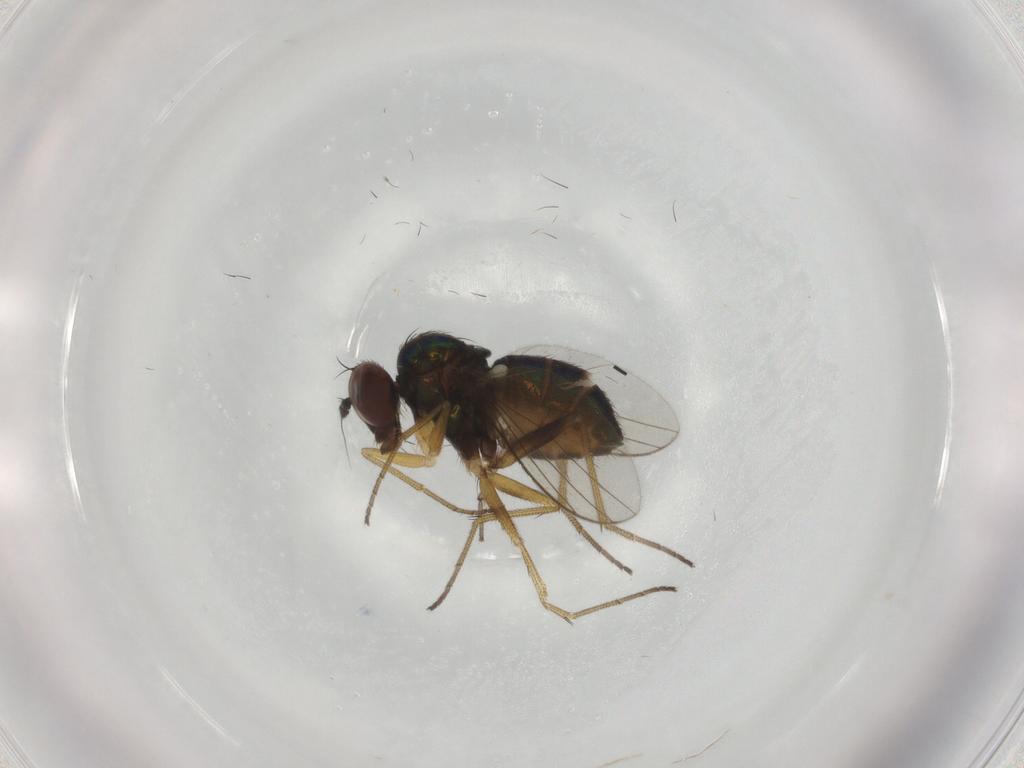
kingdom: Animalia
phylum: Arthropoda
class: Insecta
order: Diptera
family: Dolichopodidae
